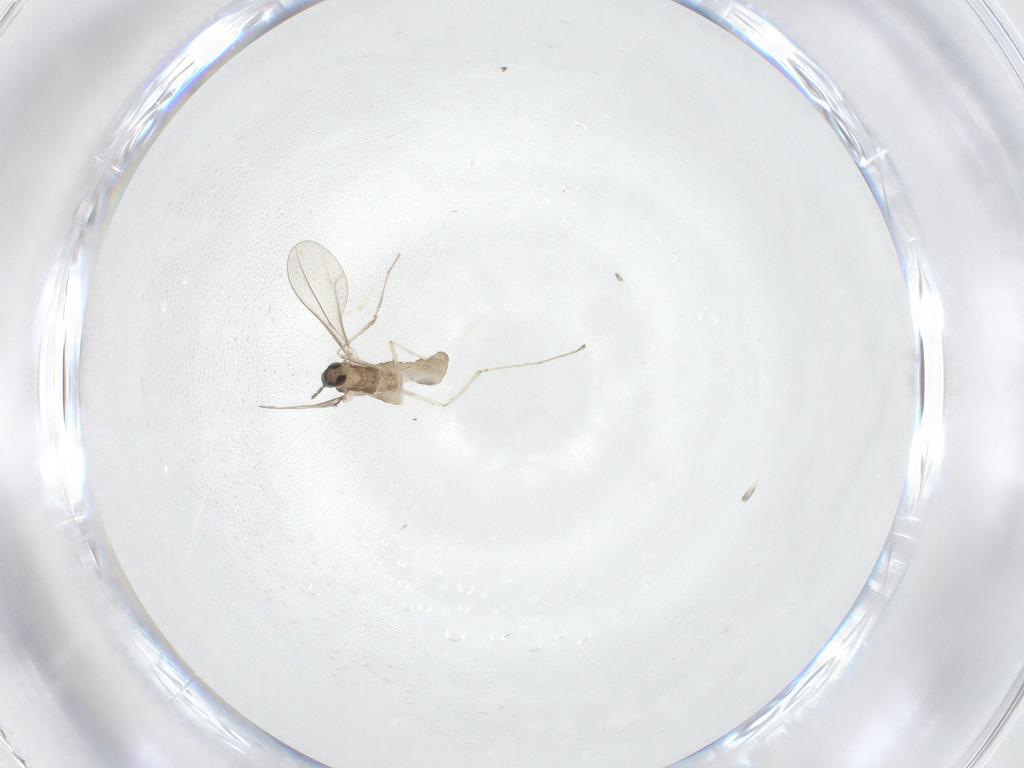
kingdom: Animalia
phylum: Arthropoda
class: Insecta
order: Diptera
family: Cecidomyiidae
